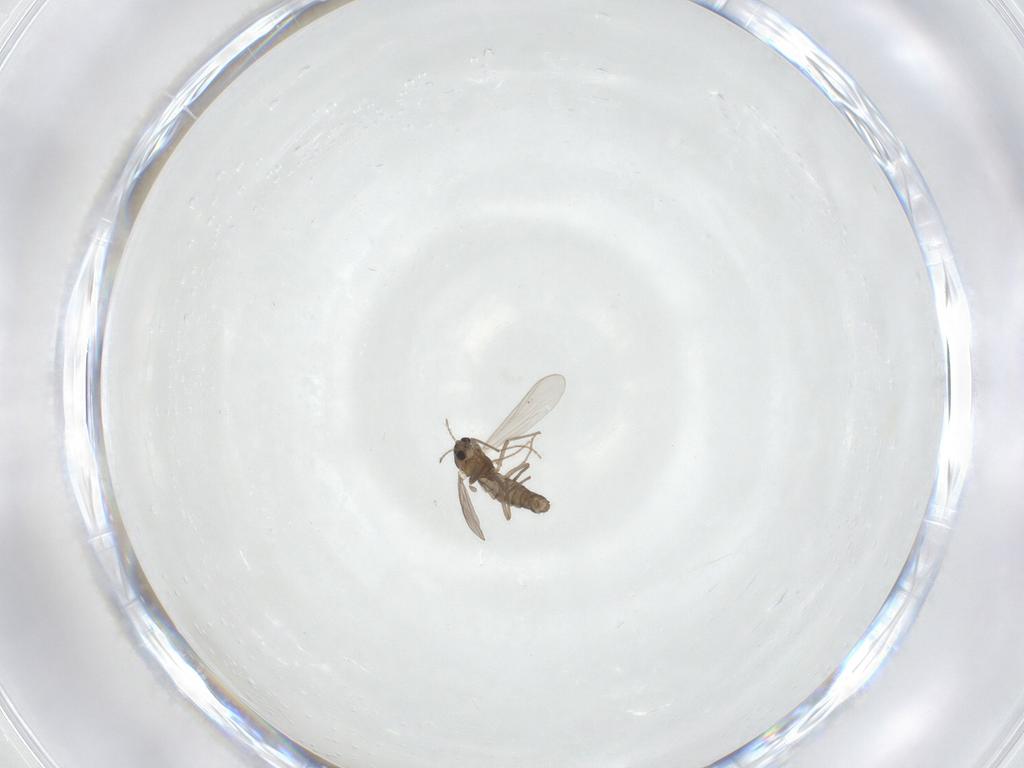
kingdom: Animalia
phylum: Arthropoda
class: Insecta
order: Diptera
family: Chironomidae
